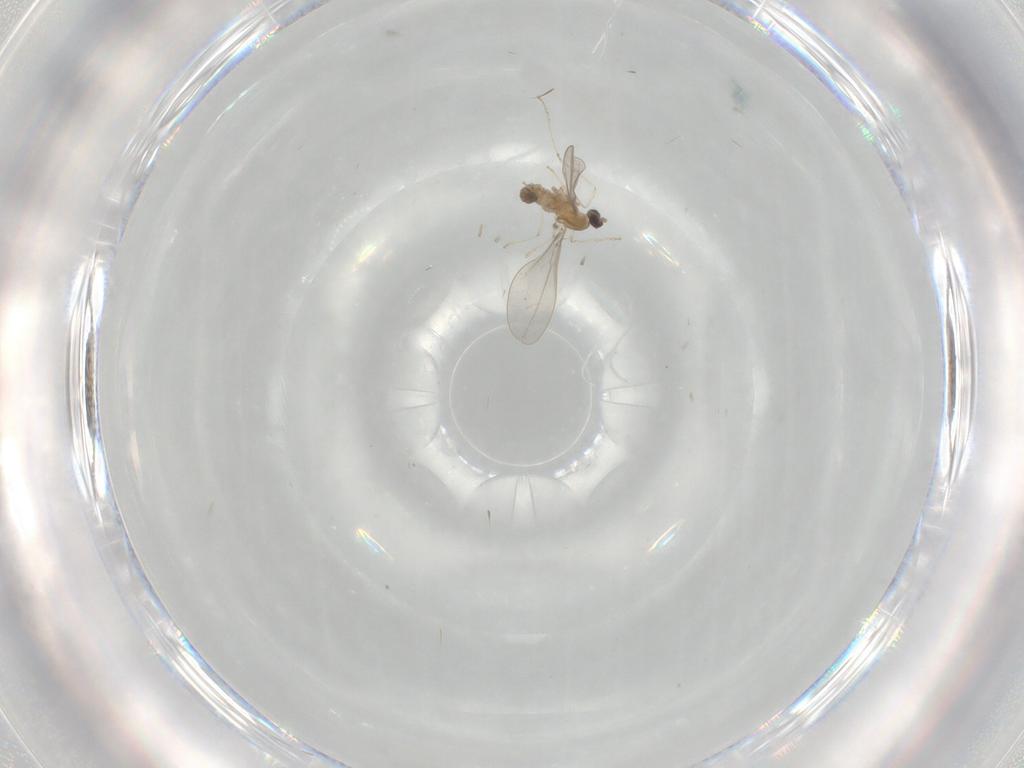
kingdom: Animalia
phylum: Arthropoda
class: Insecta
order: Diptera
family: Cecidomyiidae
